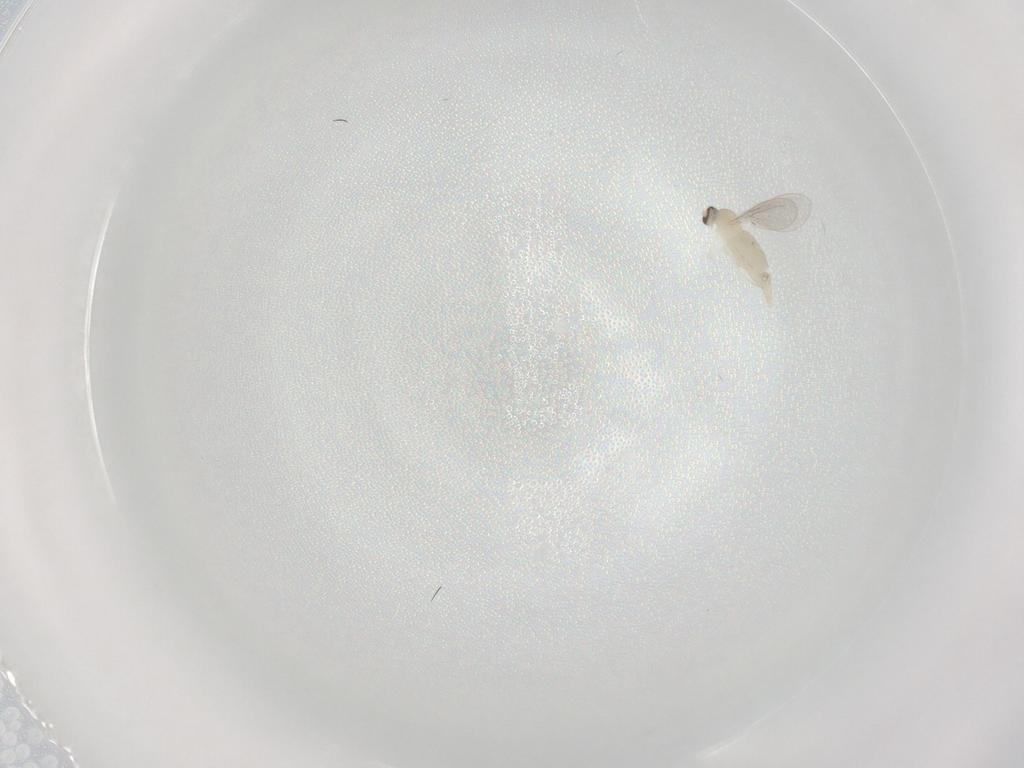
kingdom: Animalia
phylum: Arthropoda
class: Insecta
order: Diptera
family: Cecidomyiidae
